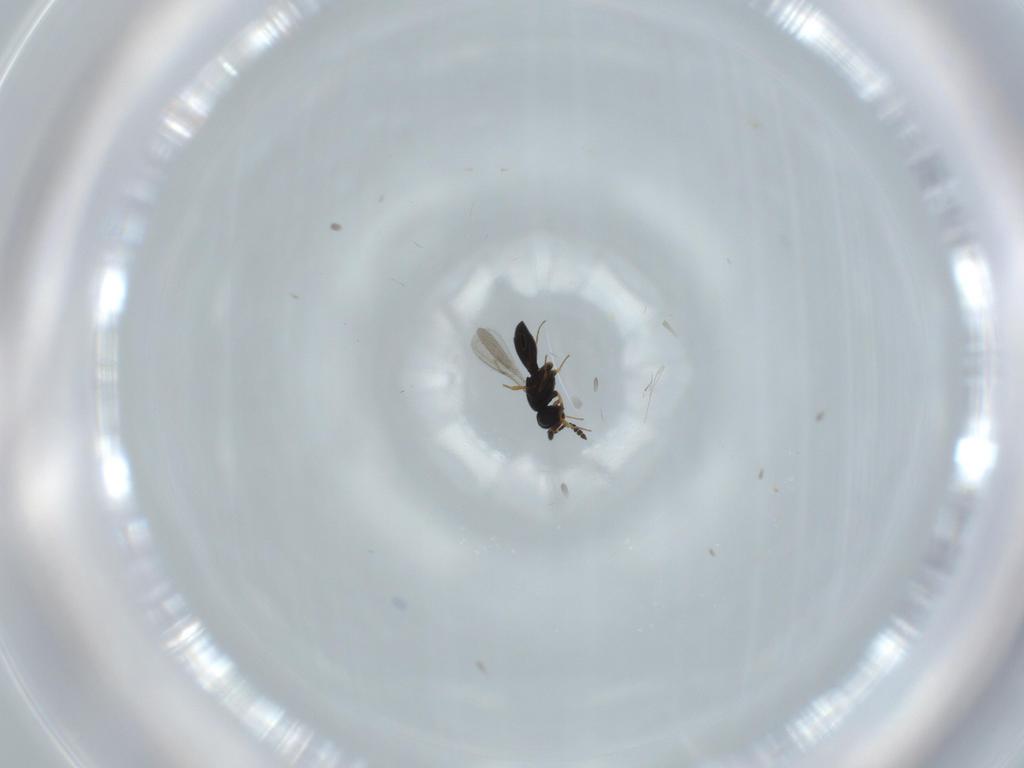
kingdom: Animalia
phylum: Arthropoda
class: Insecta
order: Hymenoptera
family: Scelionidae
